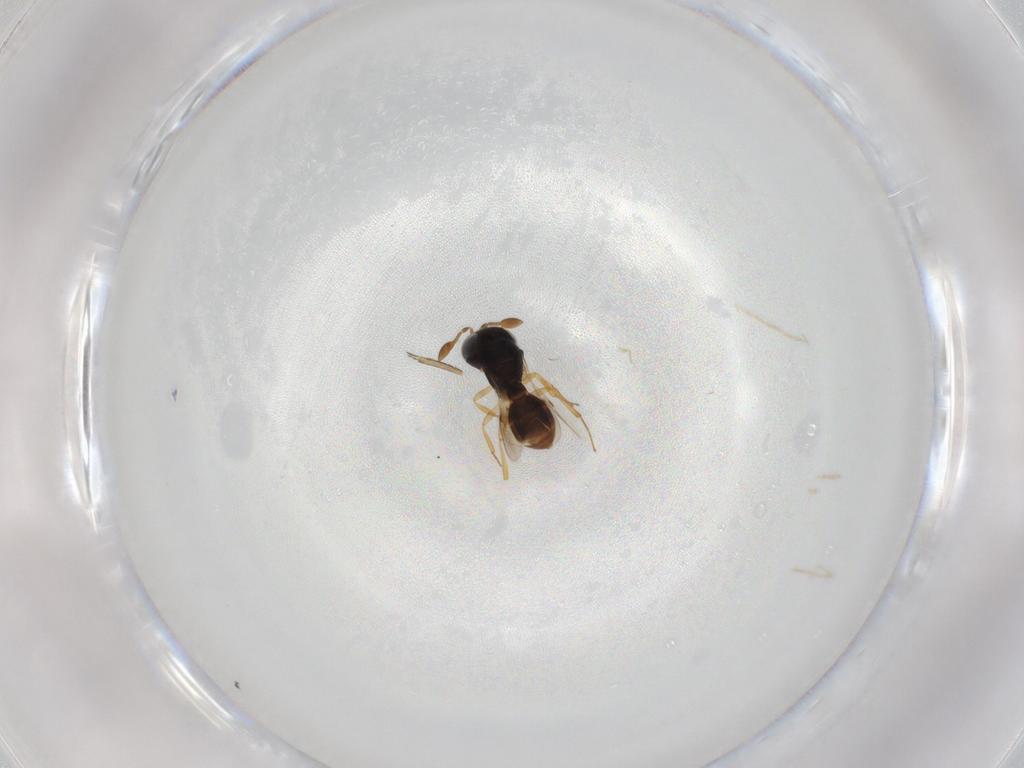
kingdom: Animalia
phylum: Arthropoda
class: Insecta
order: Hymenoptera
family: Scelionidae
